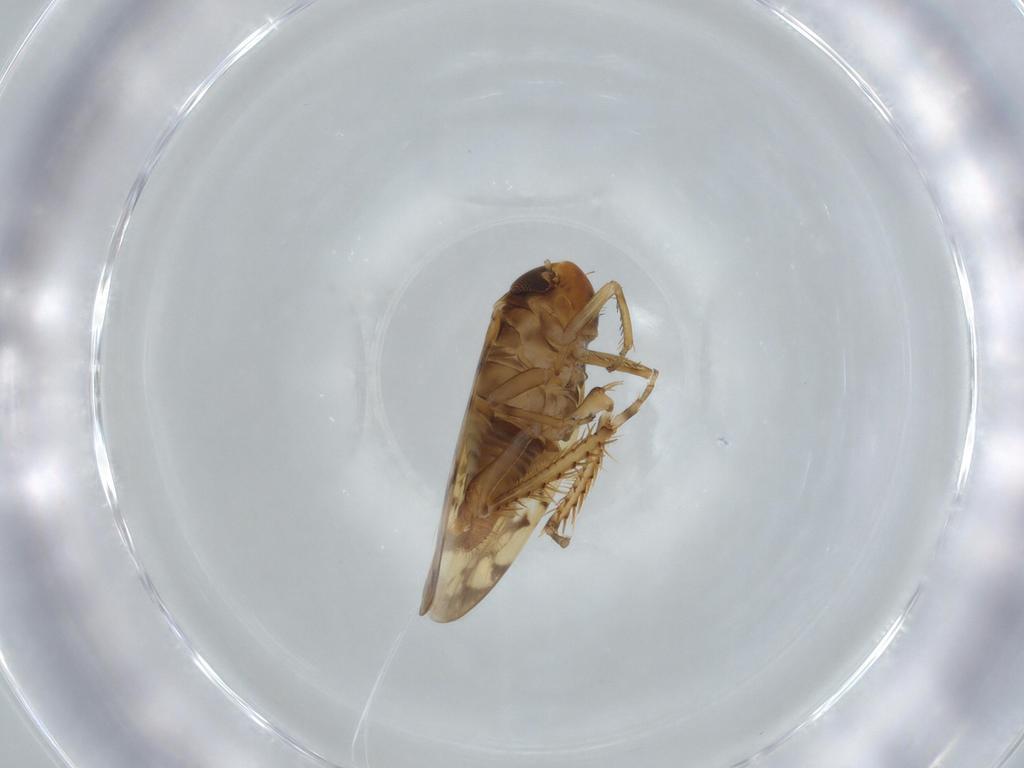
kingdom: Animalia
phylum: Arthropoda
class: Insecta
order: Hemiptera
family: Cicadellidae
